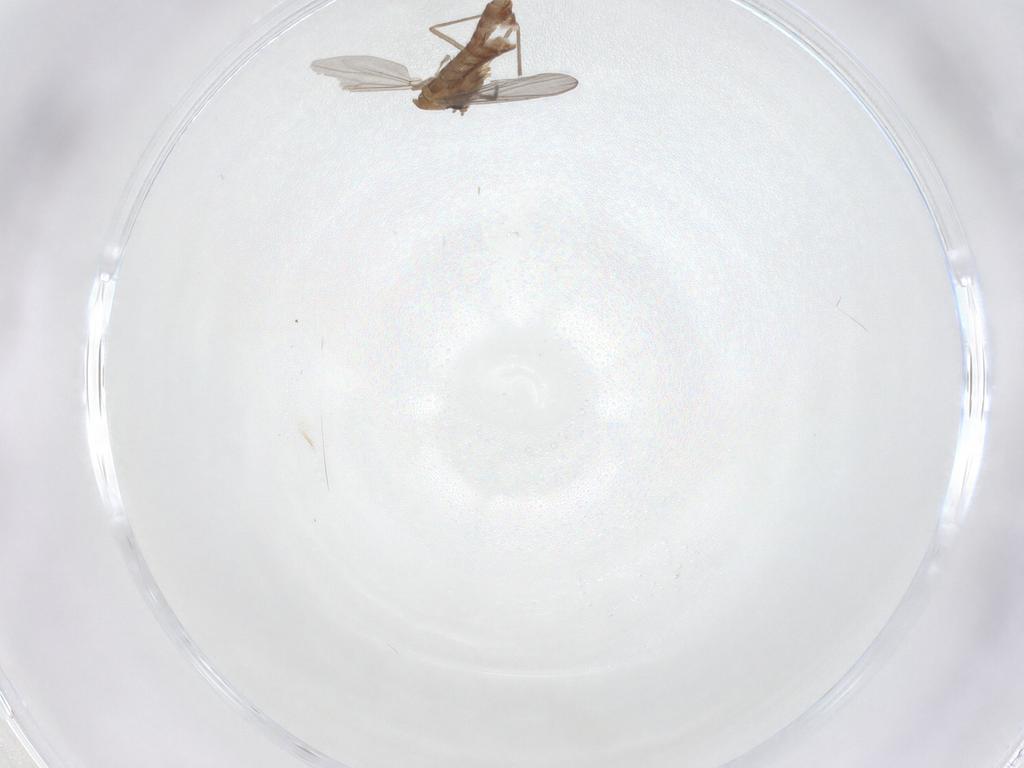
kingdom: Animalia
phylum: Arthropoda
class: Insecta
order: Diptera
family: Chironomidae
